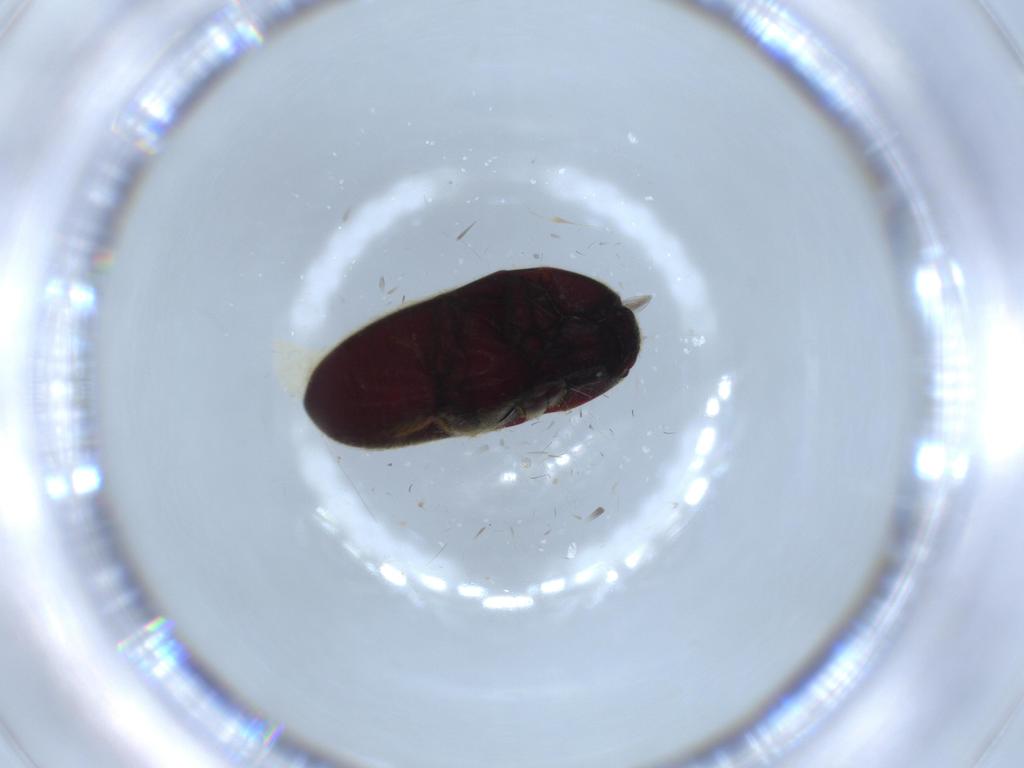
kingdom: Animalia
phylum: Arthropoda
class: Insecta
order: Coleoptera
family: Throscidae
